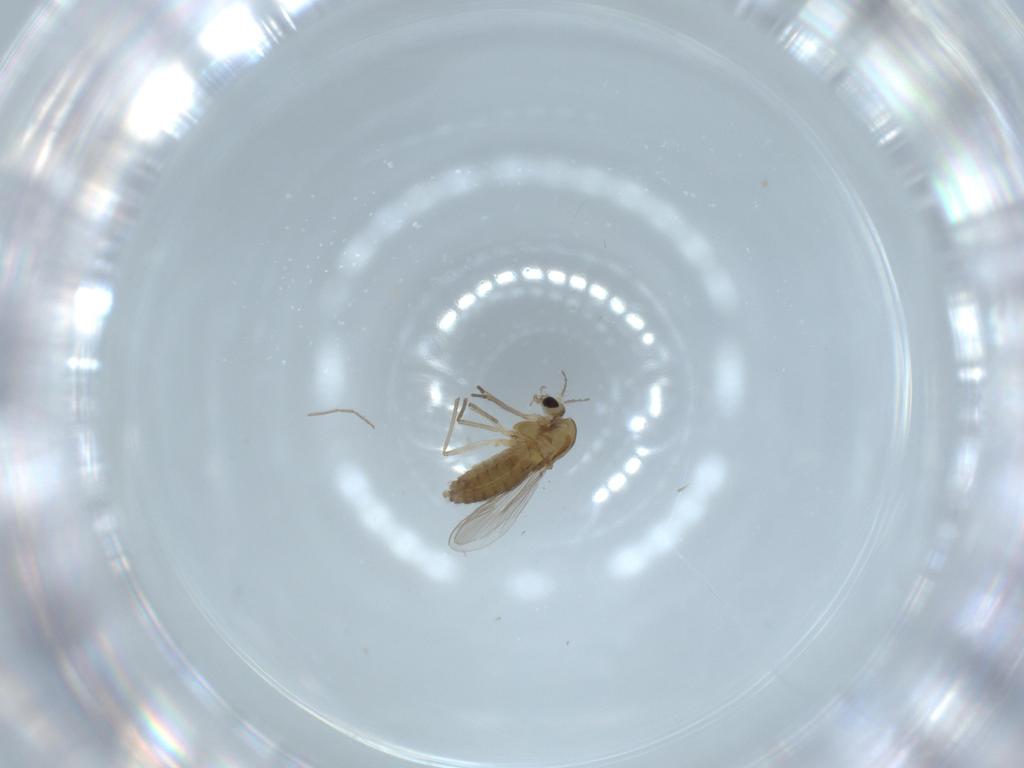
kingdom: Animalia
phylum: Arthropoda
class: Insecta
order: Diptera
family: Chironomidae
